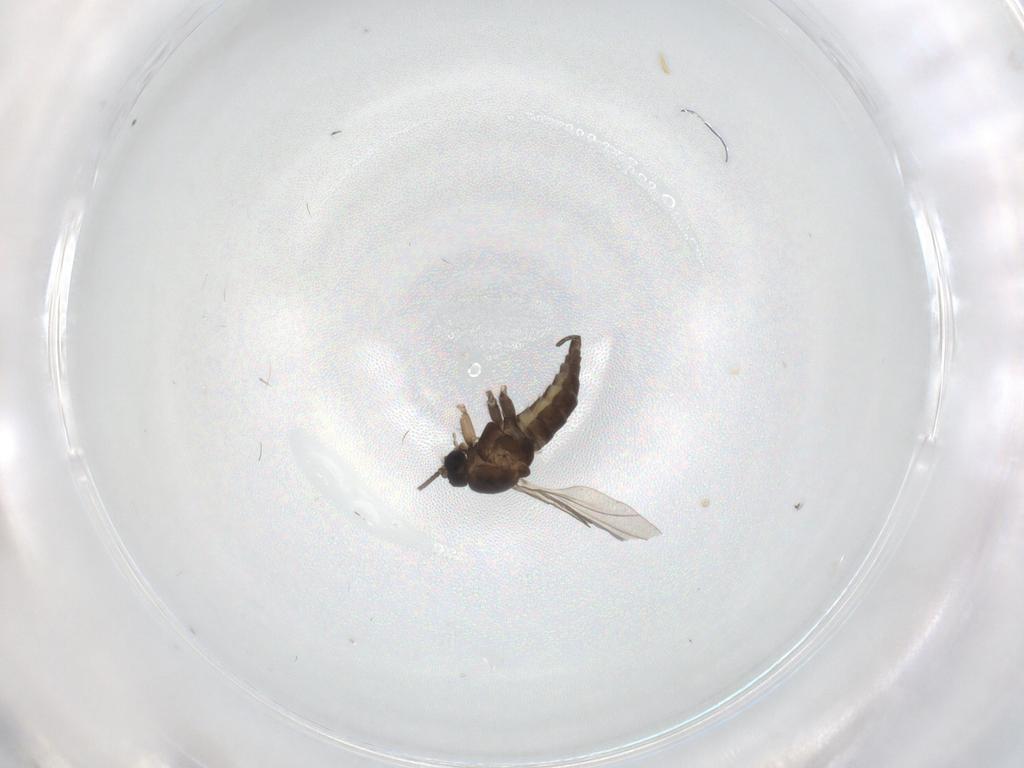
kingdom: Animalia
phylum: Arthropoda
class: Insecta
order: Diptera
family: Sciaridae
